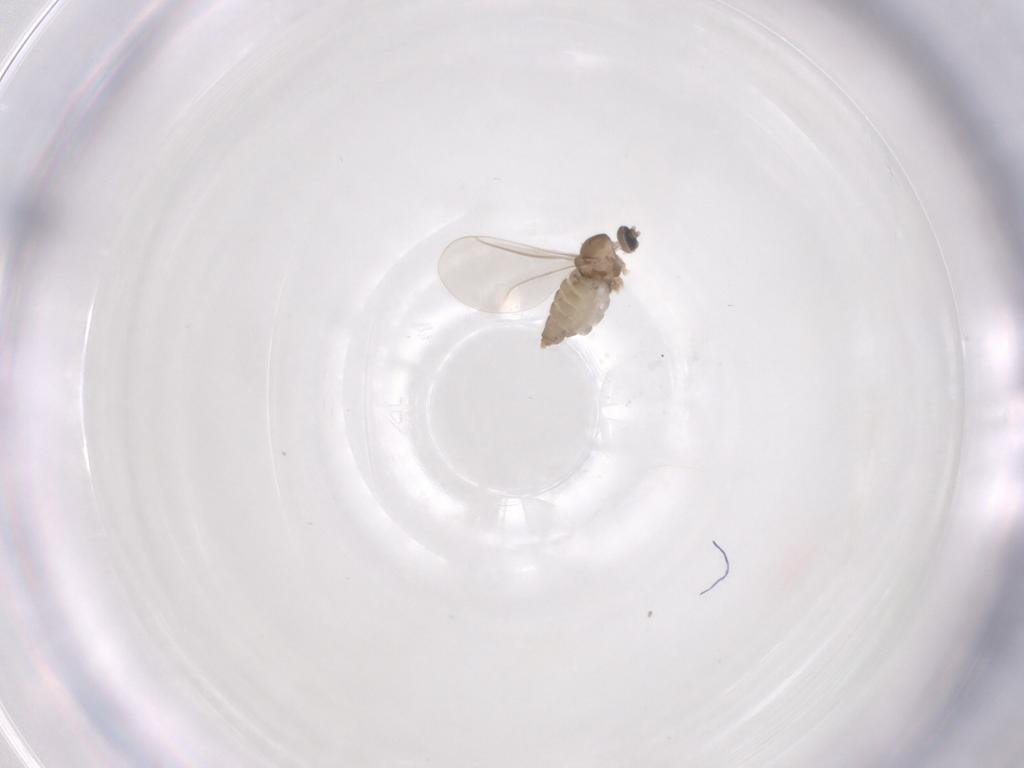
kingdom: Animalia
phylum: Arthropoda
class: Insecta
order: Diptera
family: Cecidomyiidae
